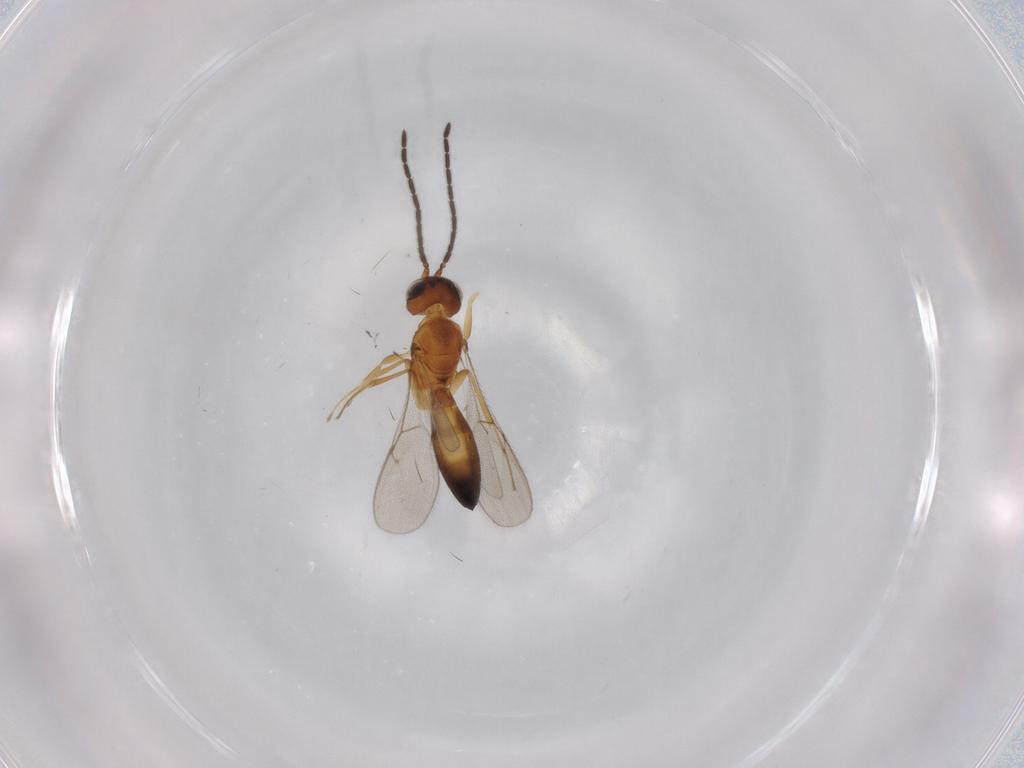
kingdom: Animalia
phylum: Arthropoda
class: Insecta
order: Hymenoptera
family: Scelionidae
